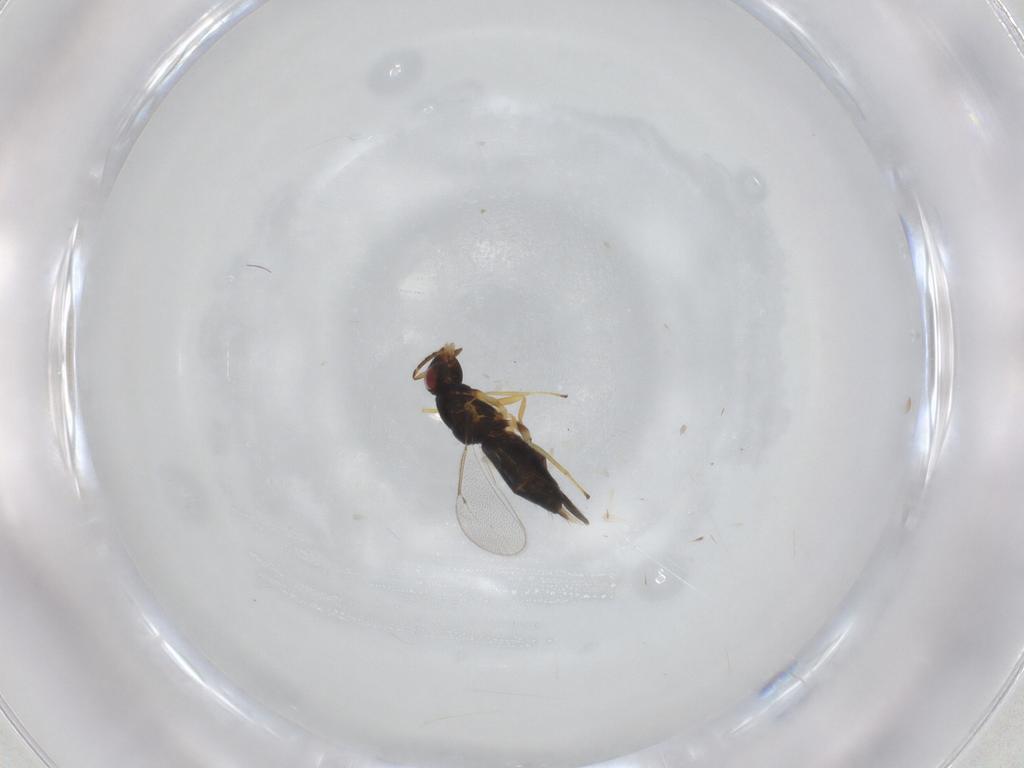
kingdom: Animalia
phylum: Arthropoda
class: Insecta
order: Hymenoptera
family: Eulophidae
